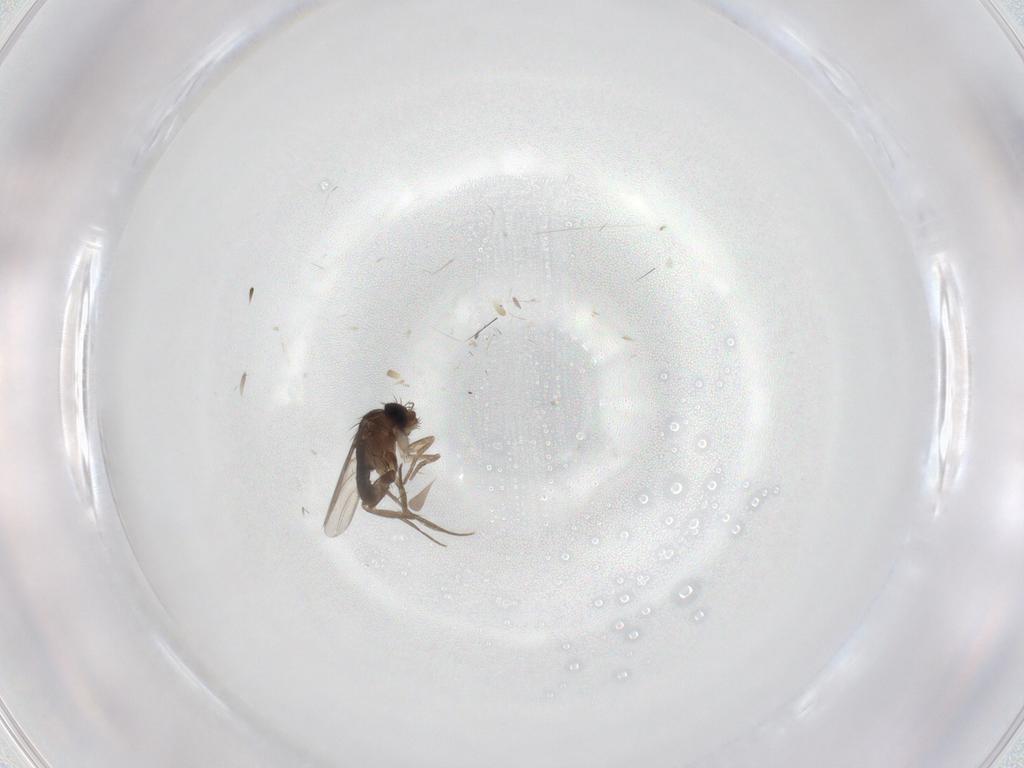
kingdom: Animalia
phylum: Arthropoda
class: Insecta
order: Diptera
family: Phoridae
